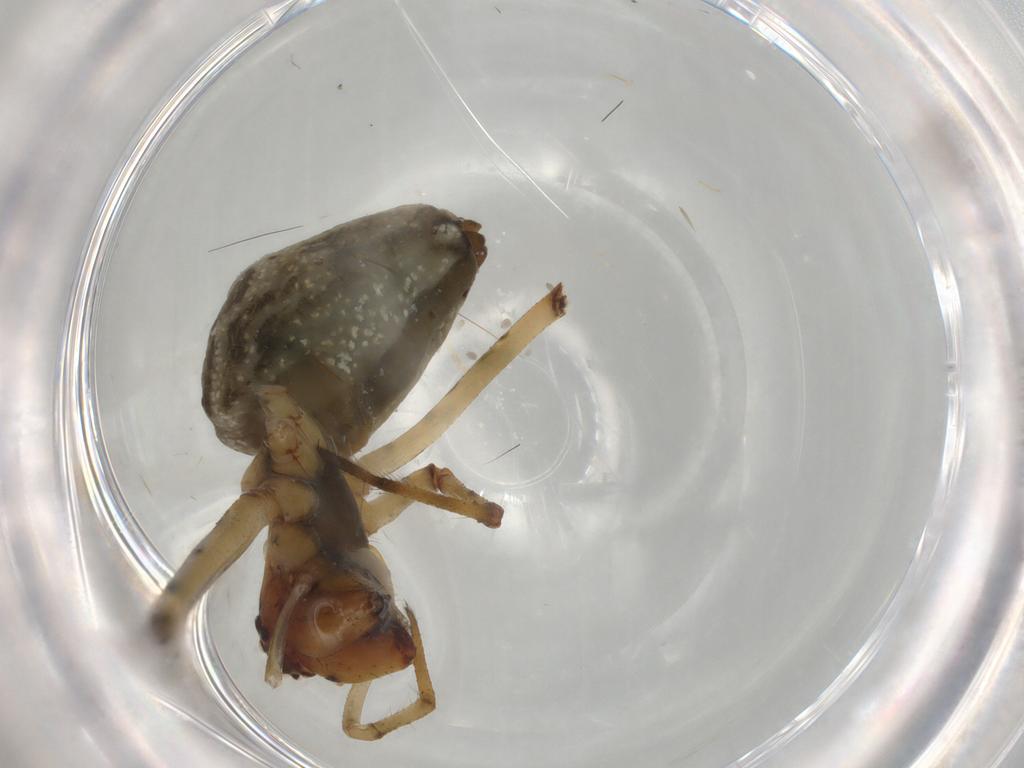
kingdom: Animalia
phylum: Arthropoda
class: Arachnida
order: Araneae
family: Tetragnathidae
